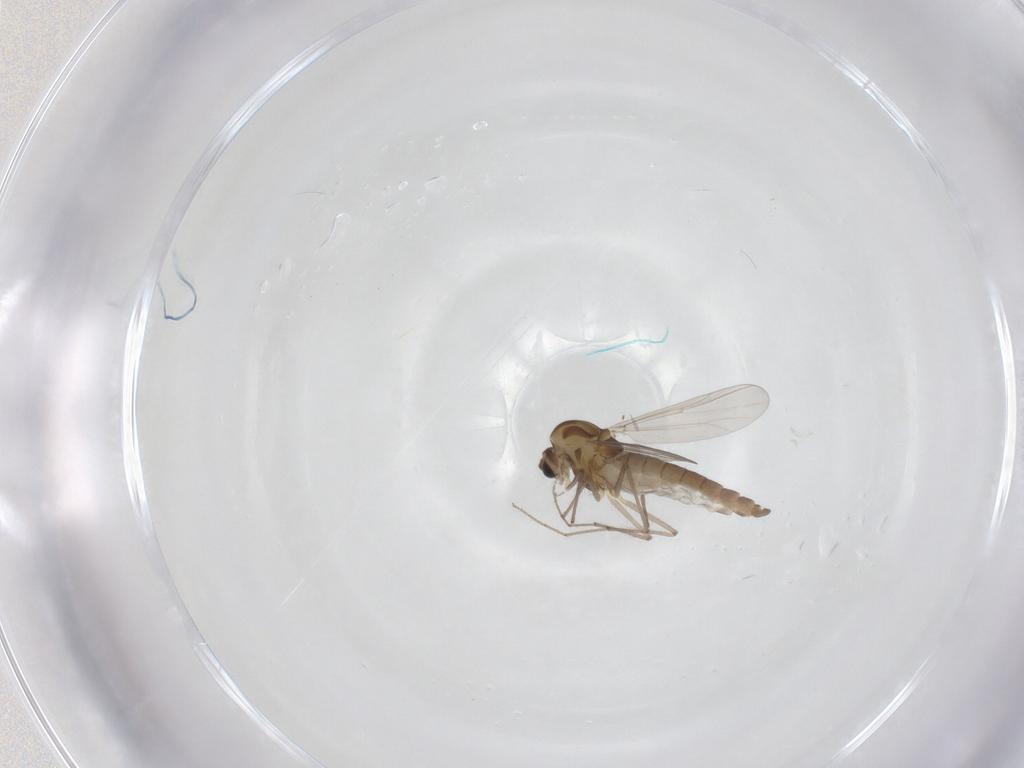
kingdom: Animalia
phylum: Arthropoda
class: Insecta
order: Diptera
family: Chironomidae
